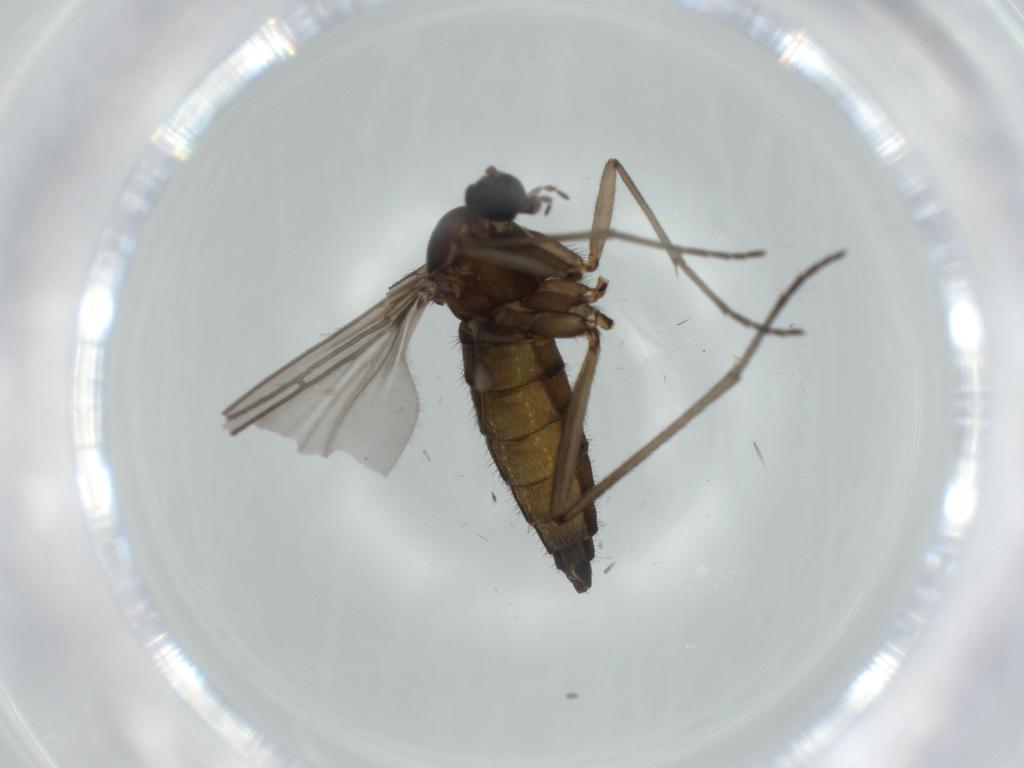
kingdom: Animalia
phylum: Arthropoda
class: Insecta
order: Diptera
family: Sciaridae
